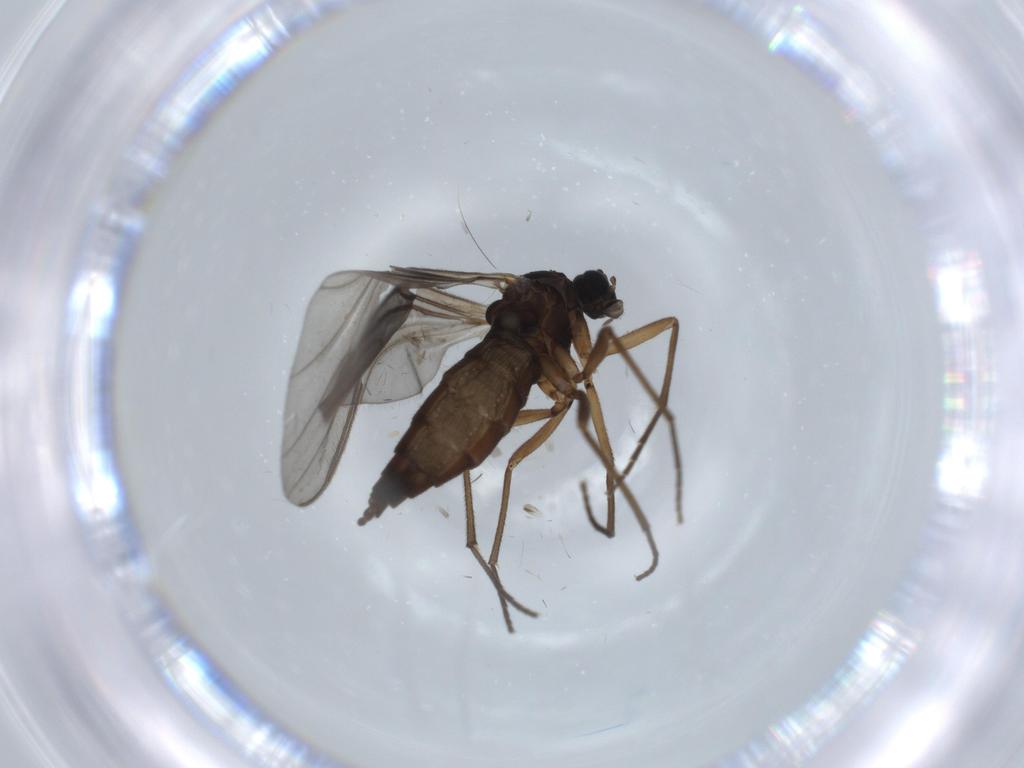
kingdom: Animalia
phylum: Arthropoda
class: Insecta
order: Diptera
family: Sciaridae
